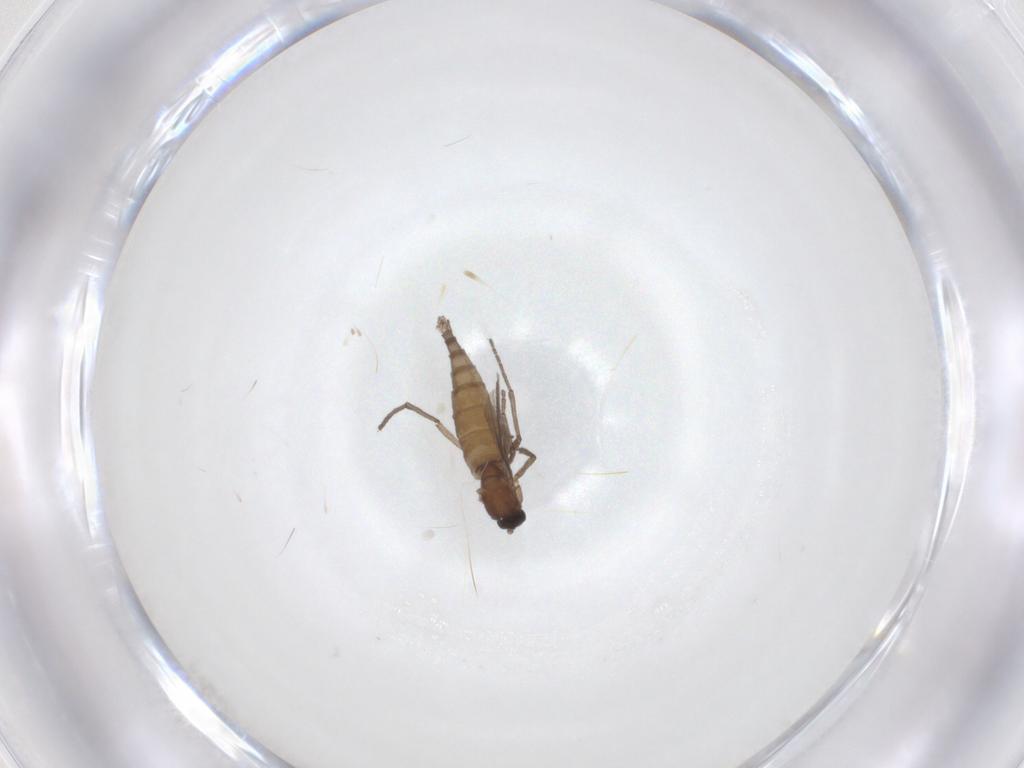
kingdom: Animalia
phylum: Arthropoda
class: Insecta
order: Diptera
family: Sciaridae
